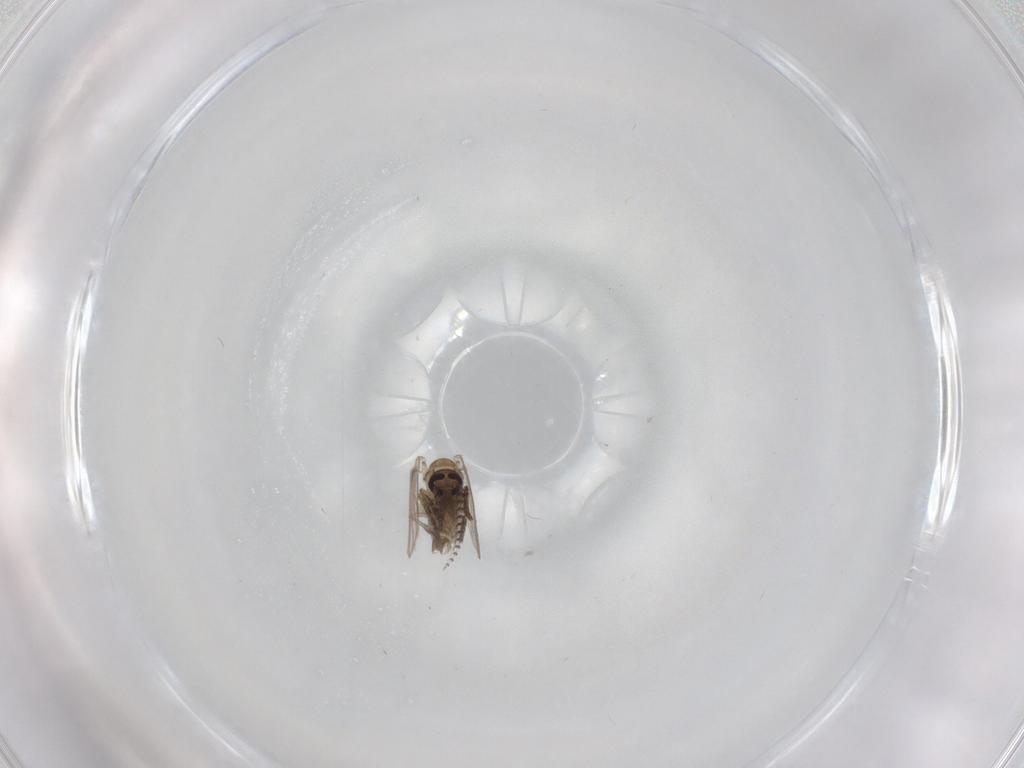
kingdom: Animalia
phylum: Arthropoda
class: Insecta
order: Diptera
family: Psychodidae
